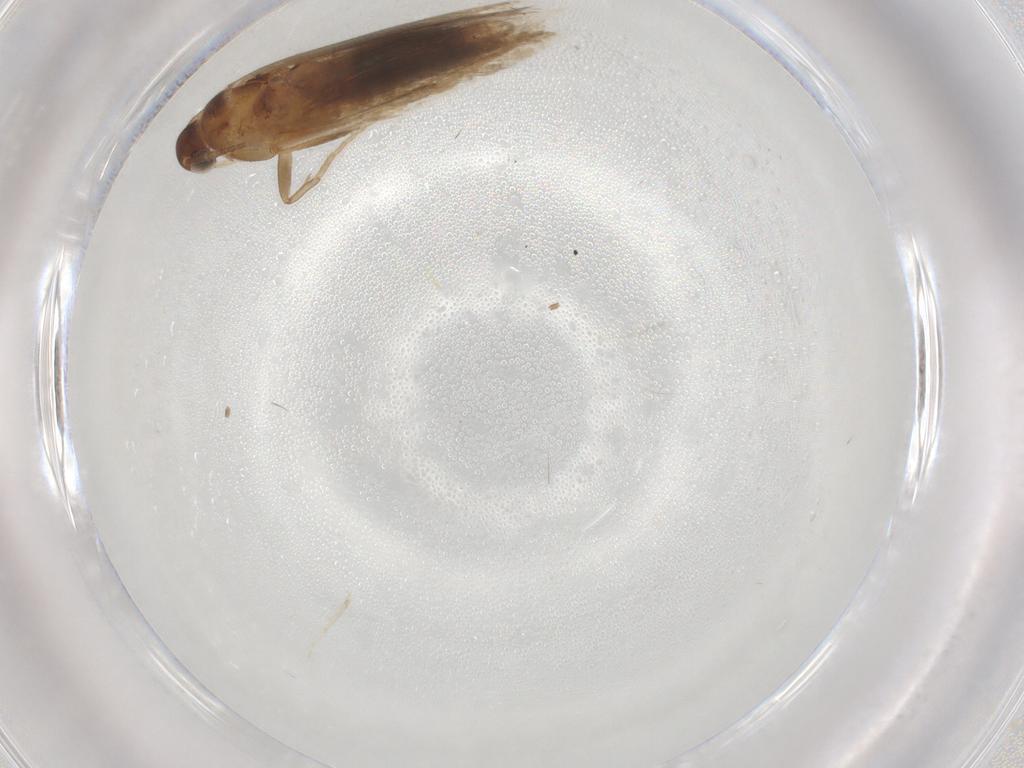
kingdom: Animalia
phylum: Arthropoda
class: Insecta
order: Lepidoptera
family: Gelechiidae
